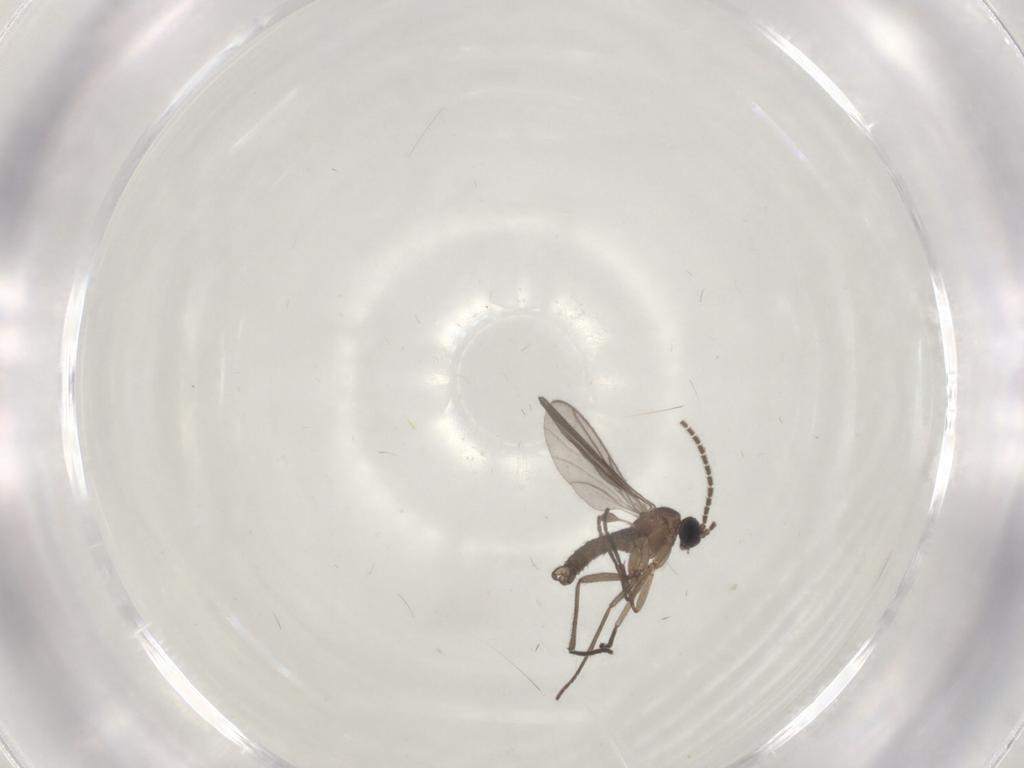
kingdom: Animalia
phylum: Arthropoda
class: Insecta
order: Diptera
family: Sciaridae
